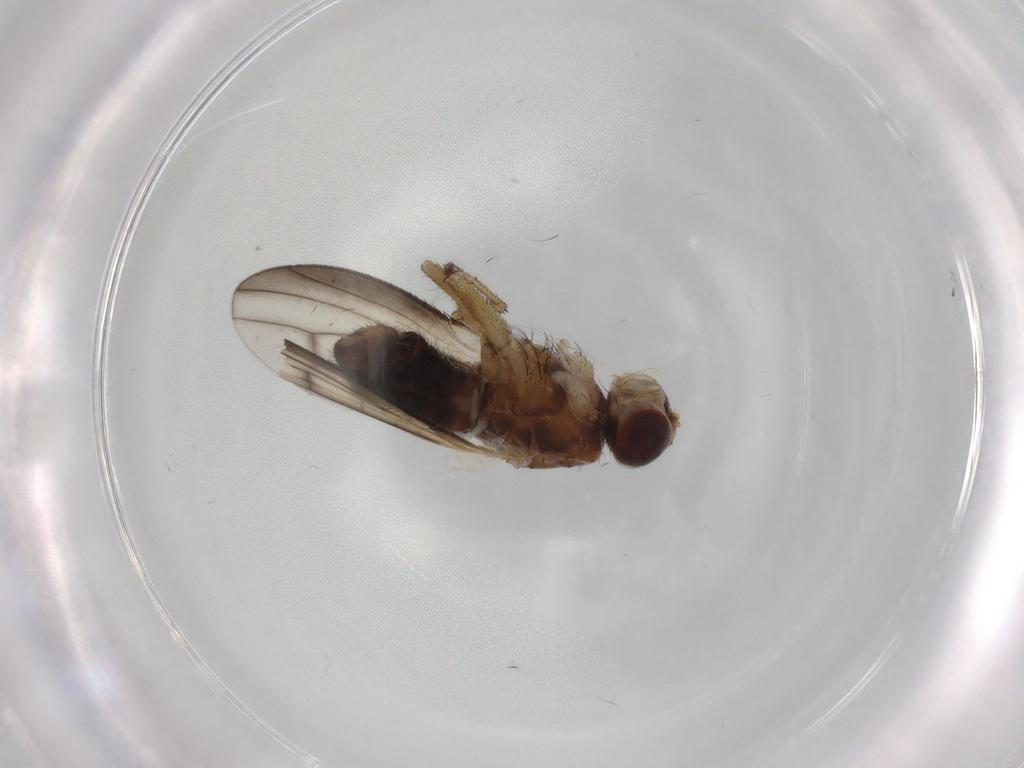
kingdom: Animalia
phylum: Arthropoda
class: Insecta
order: Diptera
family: Heleomyzidae
